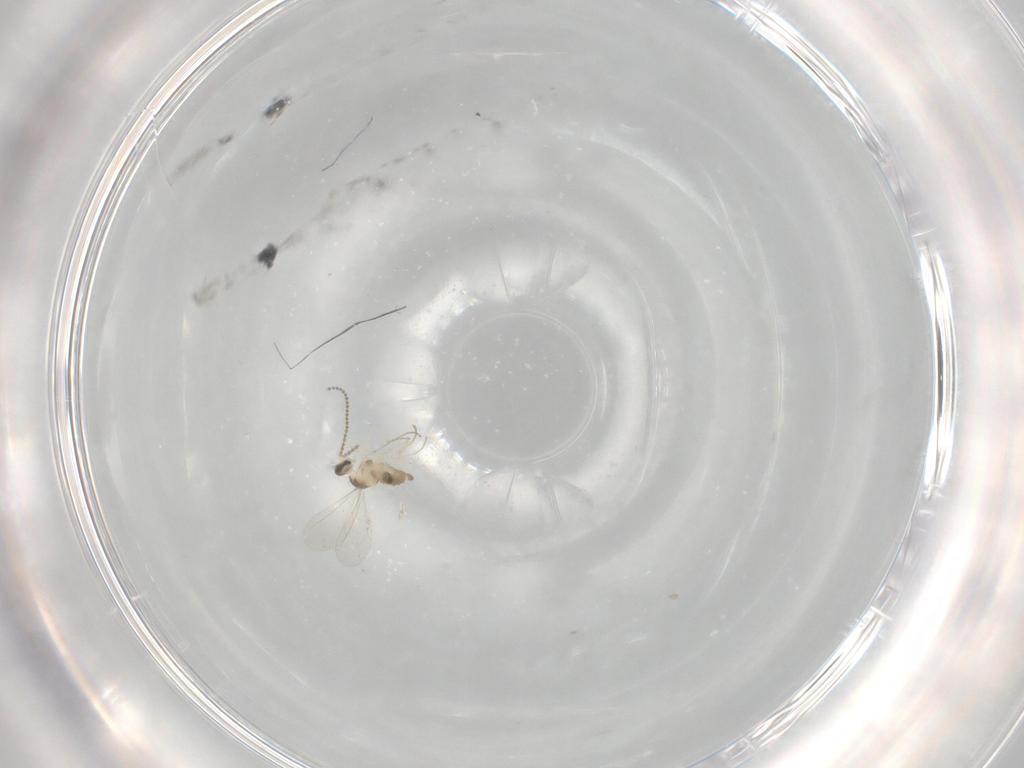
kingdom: Animalia
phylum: Arthropoda
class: Insecta
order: Diptera
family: Cecidomyiidae
